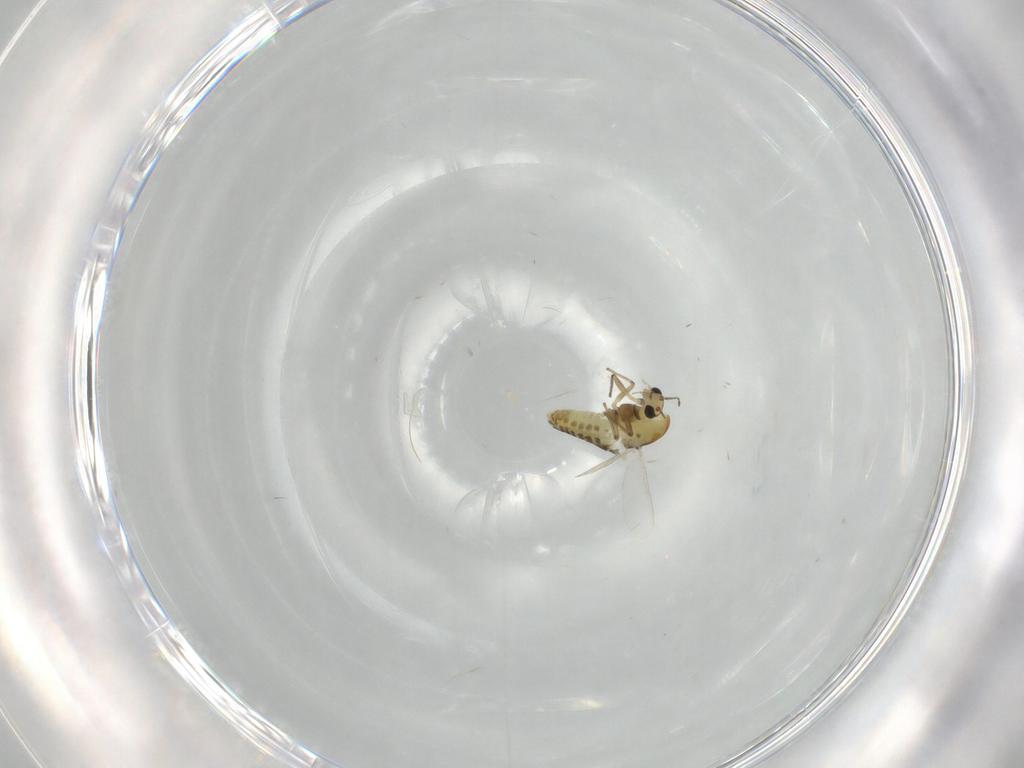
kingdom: Animalia
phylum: Arthropoda
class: Insecta
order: Diptera
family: Chironomidae
